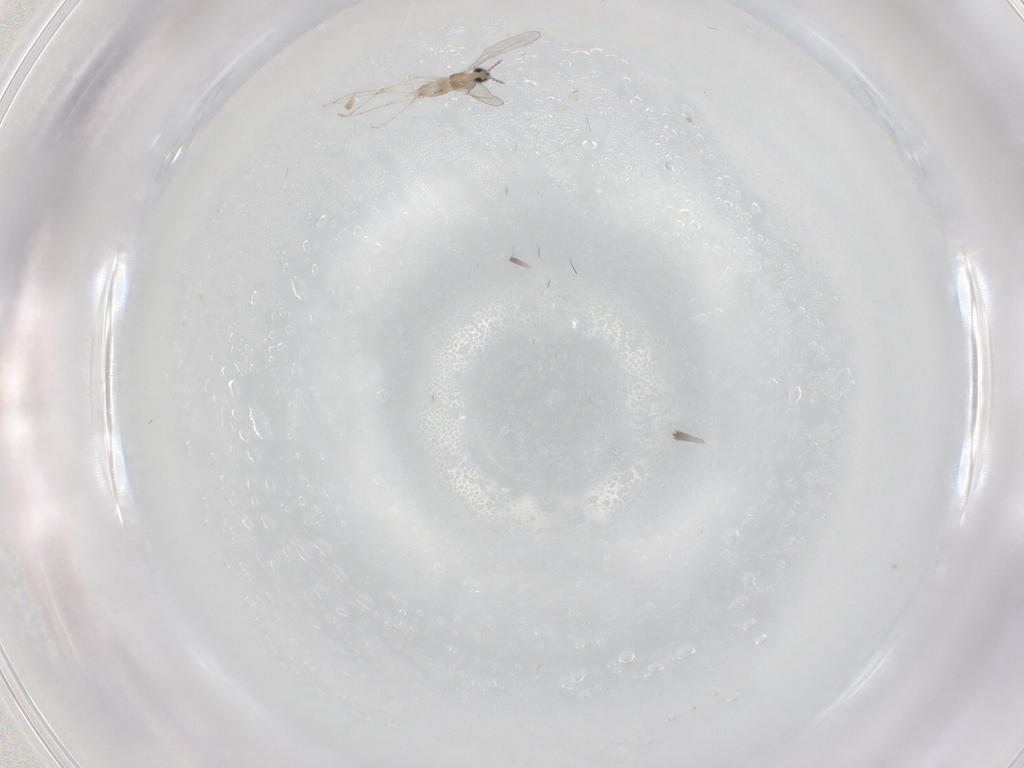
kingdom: Animalia
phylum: Arthropoda
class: Insecta
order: Diptera
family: Cecidomyiidae
